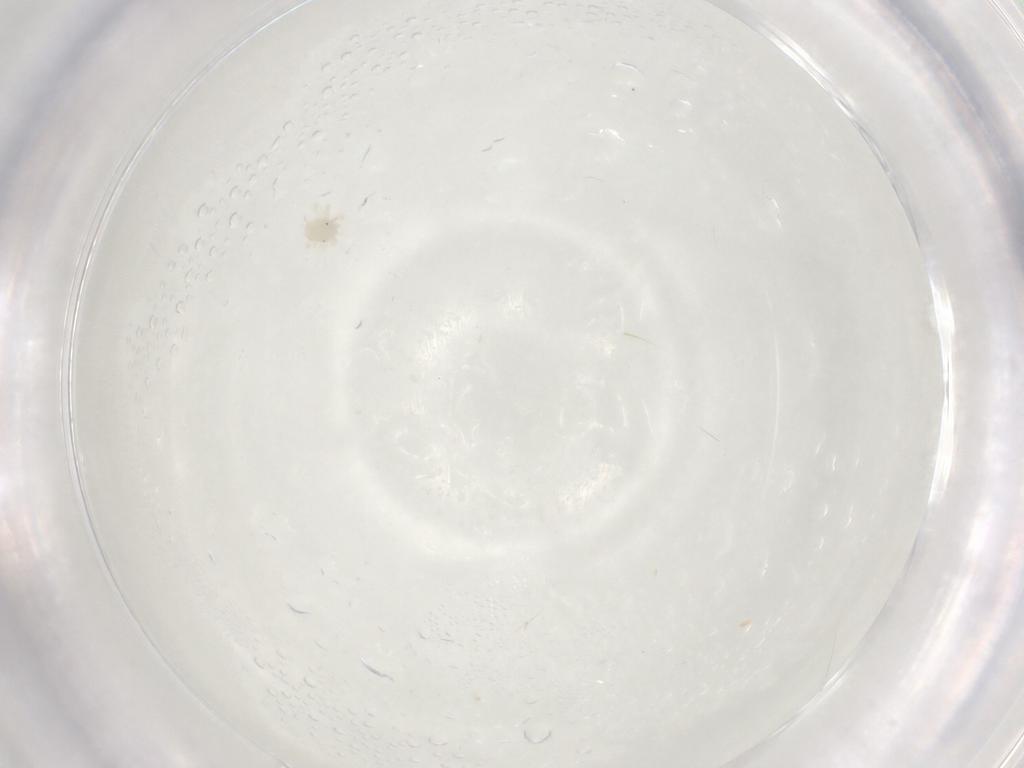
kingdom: Animalia
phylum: Arthropoda
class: Arachnida
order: Trombidiformes
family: Anystidae
